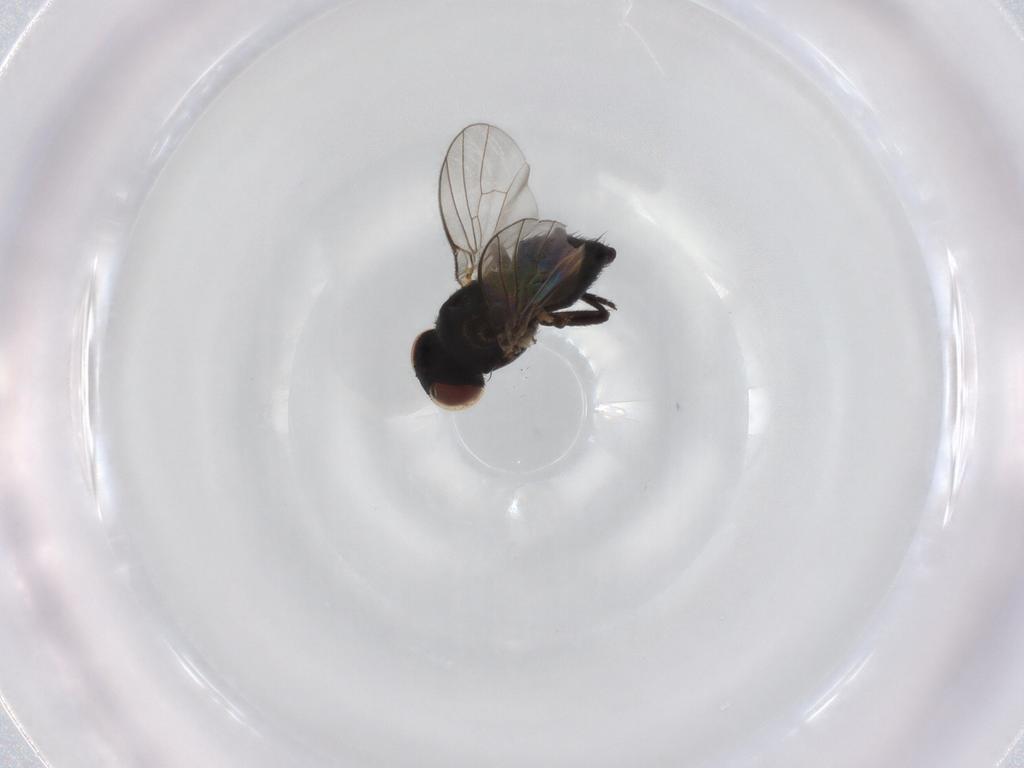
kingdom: Animalia
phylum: Arthropoda
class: Insecta
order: Diptera
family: Agromyzidae
